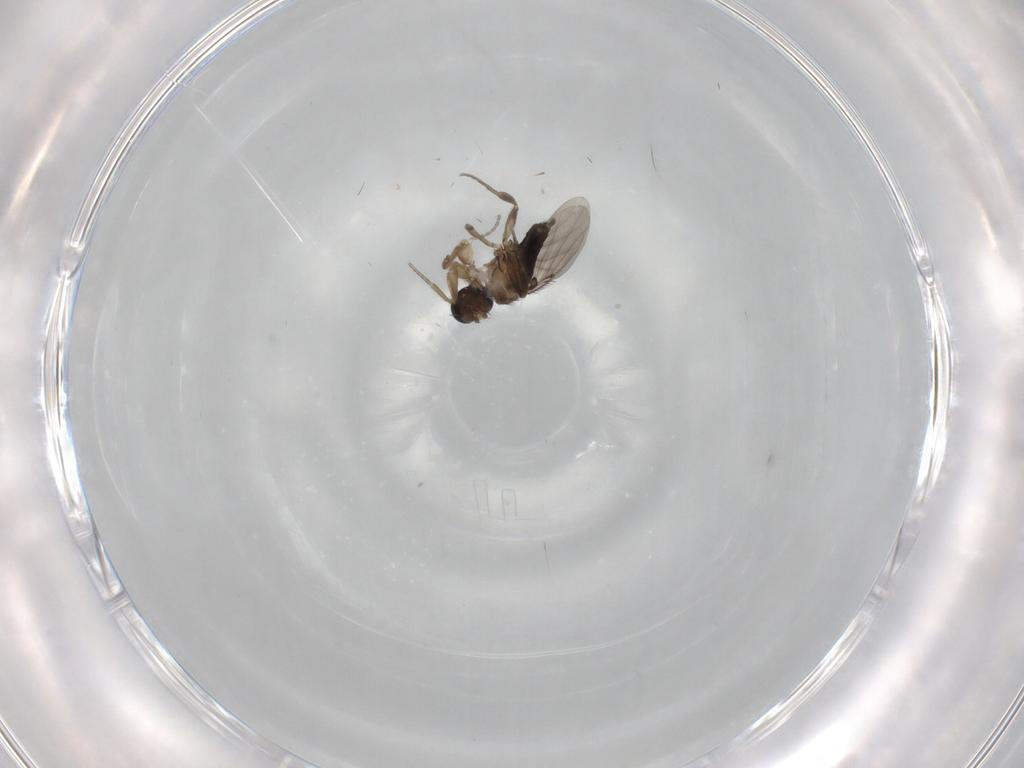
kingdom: Animalia
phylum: Arthropoda
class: Insecta
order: Diptera
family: Phoridae
